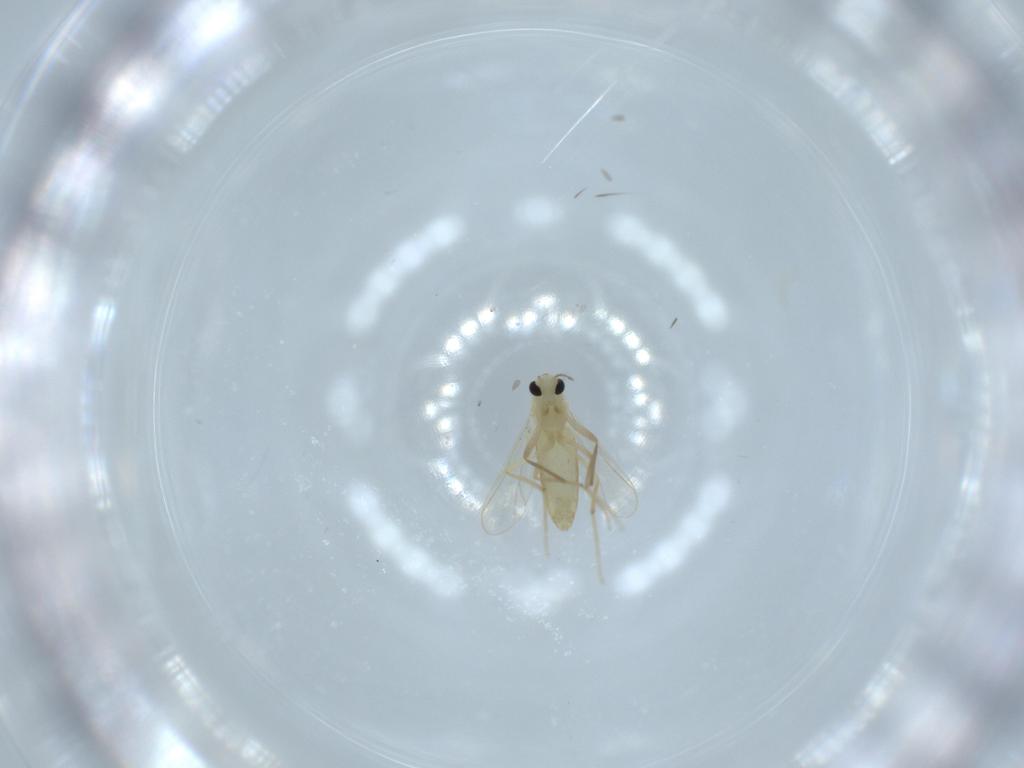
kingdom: Animalia
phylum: Arthropoda
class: Insecta
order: Diptera
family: Chironomidae
